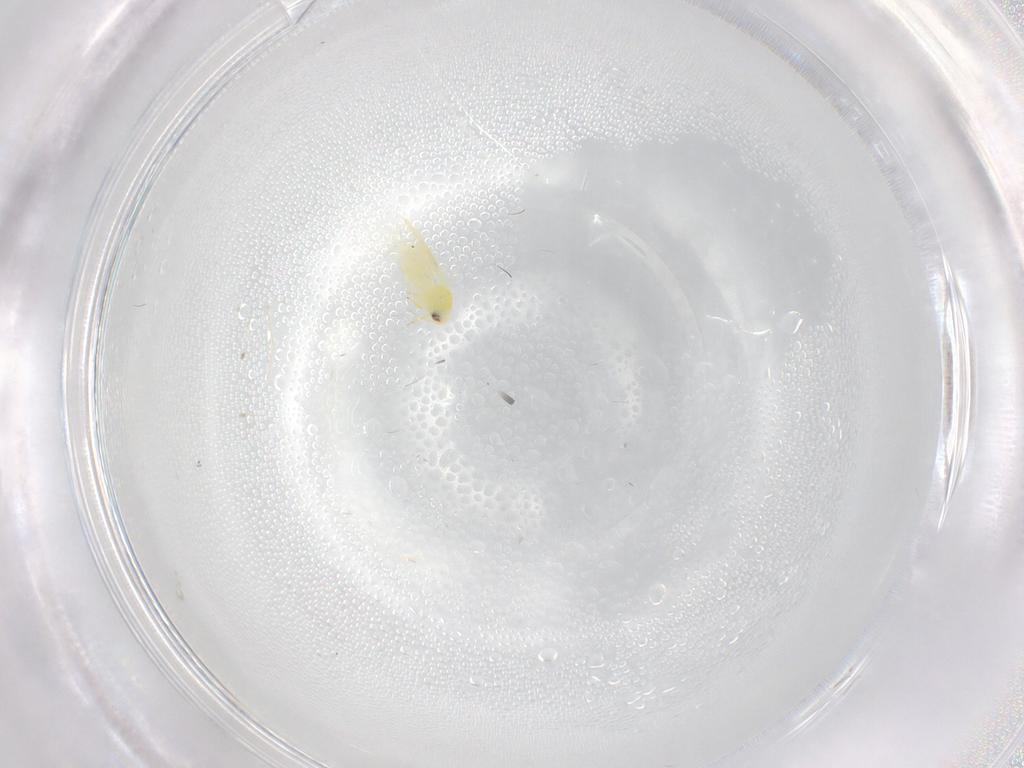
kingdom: Animalia
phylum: Arthropoda
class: Insecta
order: Hemiptera
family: Aleyrodidae
